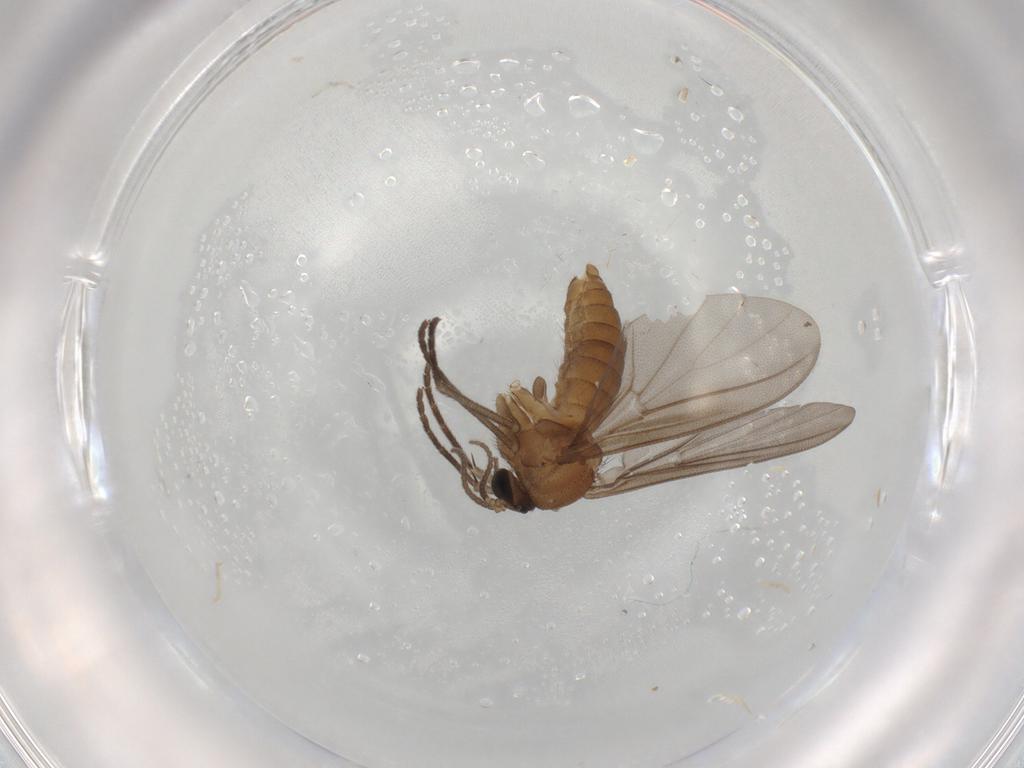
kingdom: Animalia
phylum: Arthropoda
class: Insecta
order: Diptera
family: Diadocidiidae
